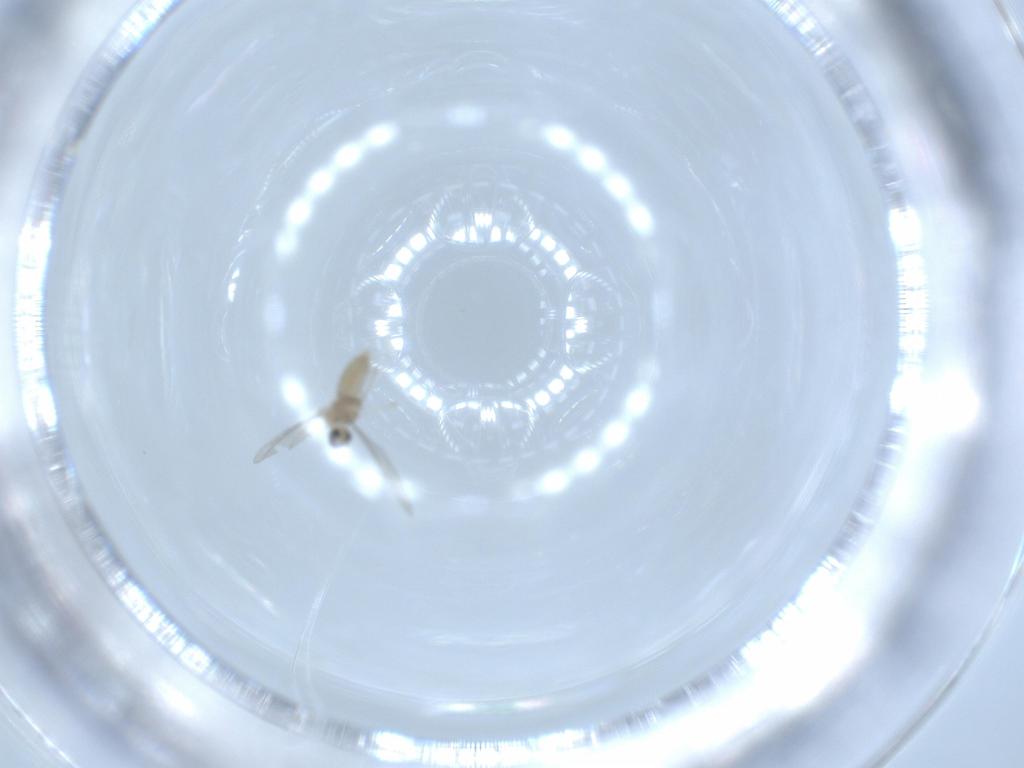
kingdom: Animalia
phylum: Arthropoda
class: Insecta
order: Diptera
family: Cecidomyiidae
